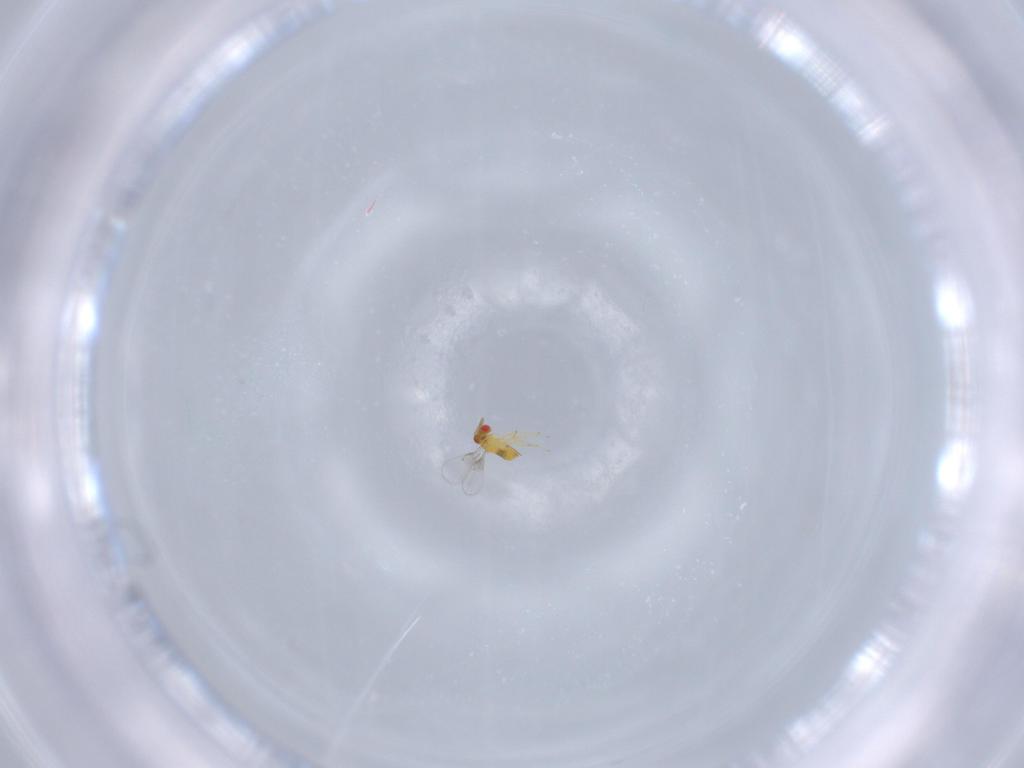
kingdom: Animalia
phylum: Arthropoda
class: Insecta
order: Hymenoptera
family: Trichogrammatidae
